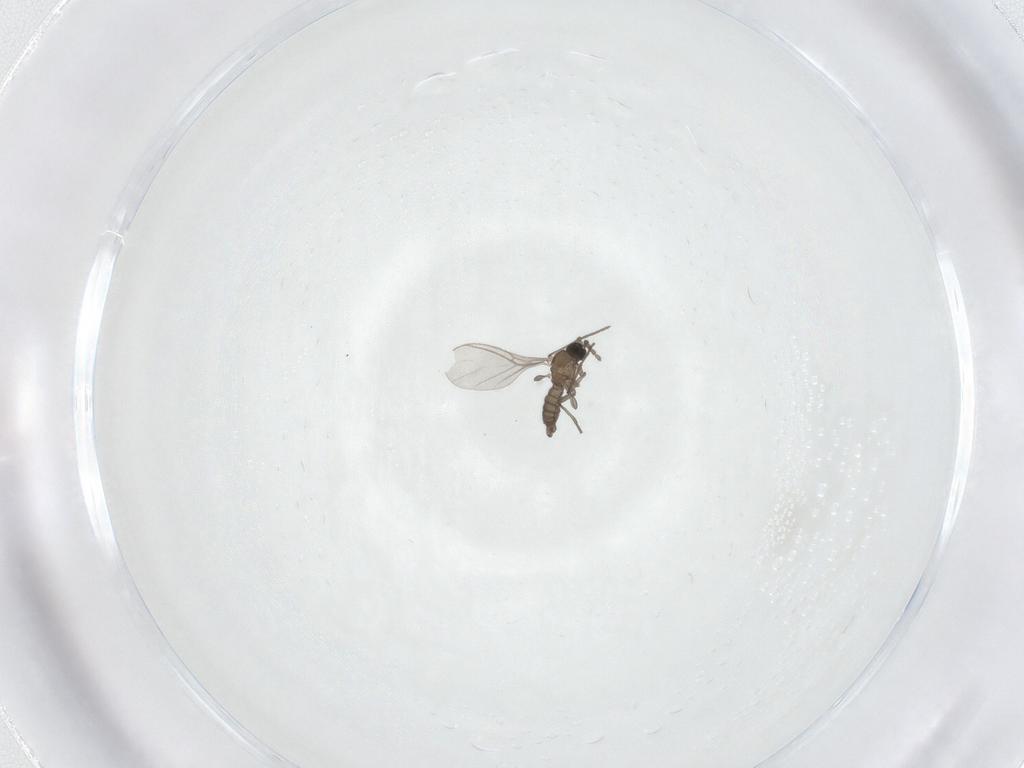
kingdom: Animalia
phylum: Arthropoda
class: Insecta
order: Diptera
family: Sciaridae
